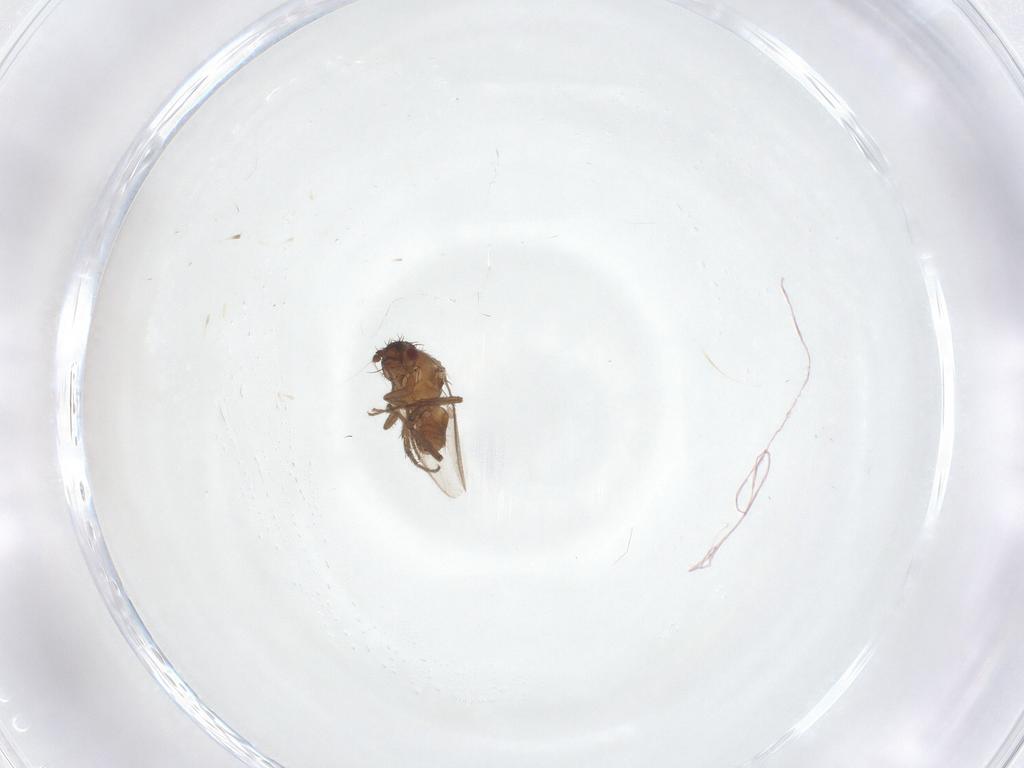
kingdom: Animalia
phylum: Arthropoda
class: Insecta
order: Diptera
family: Sphaeroceridae
